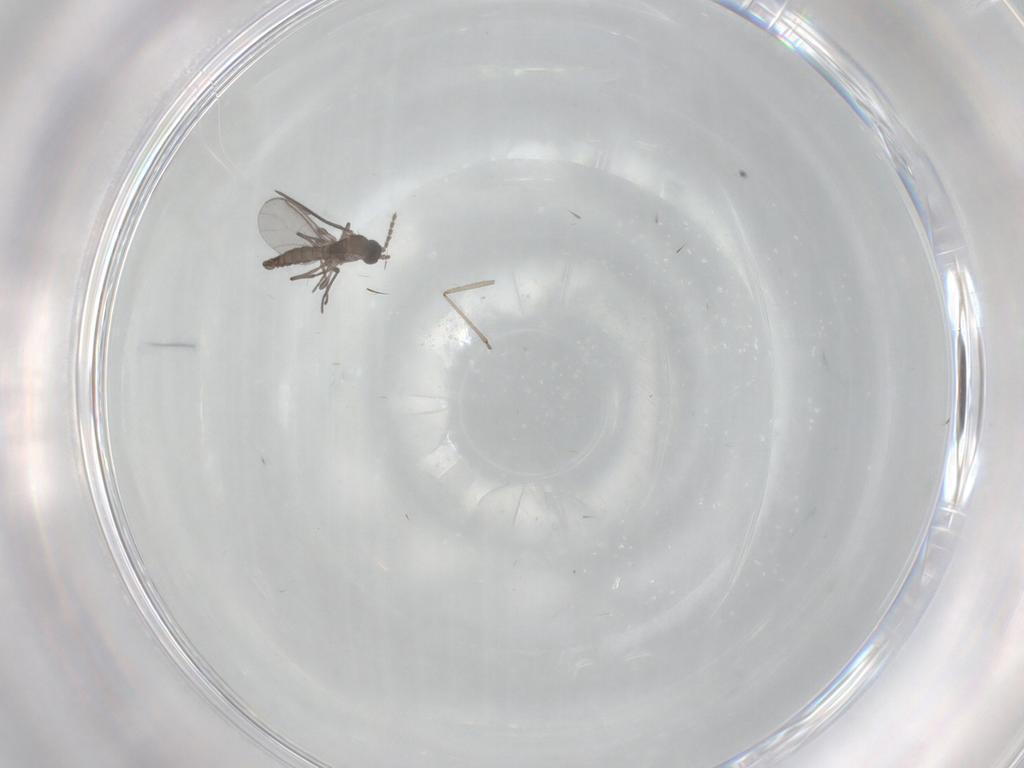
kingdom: Animalia
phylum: Arthropoda
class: Insecta
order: Diptera
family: Sciaridae
